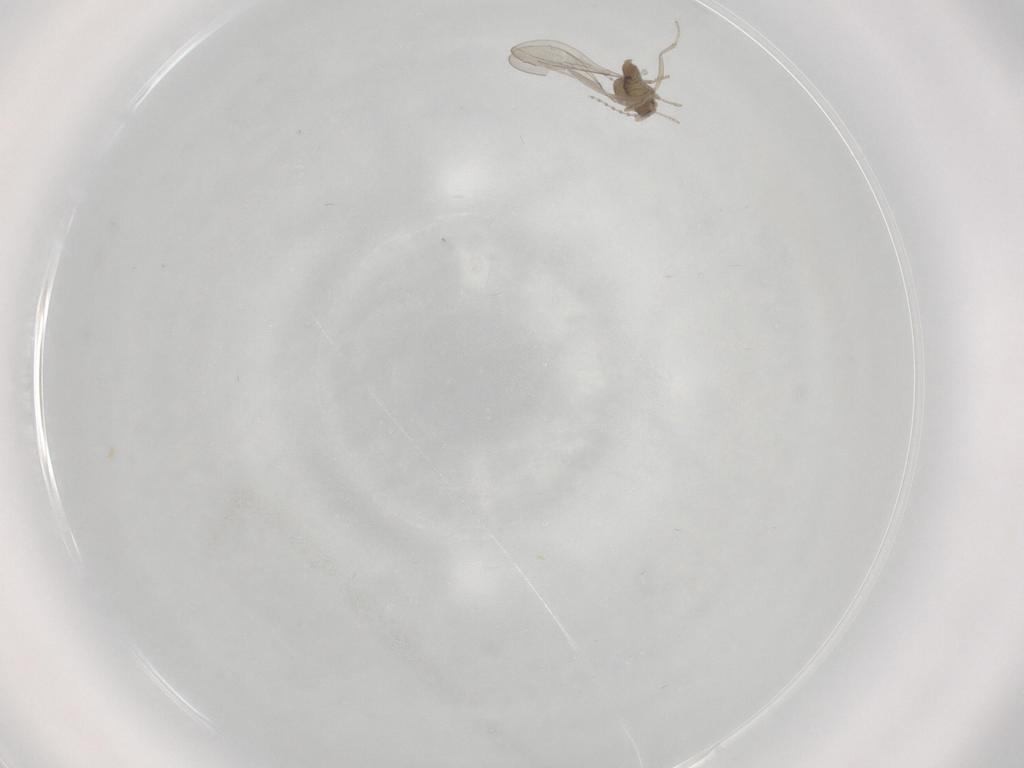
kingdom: Animalia
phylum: Arthropoda
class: Insecta
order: Diptera
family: Cecidomyiidae
